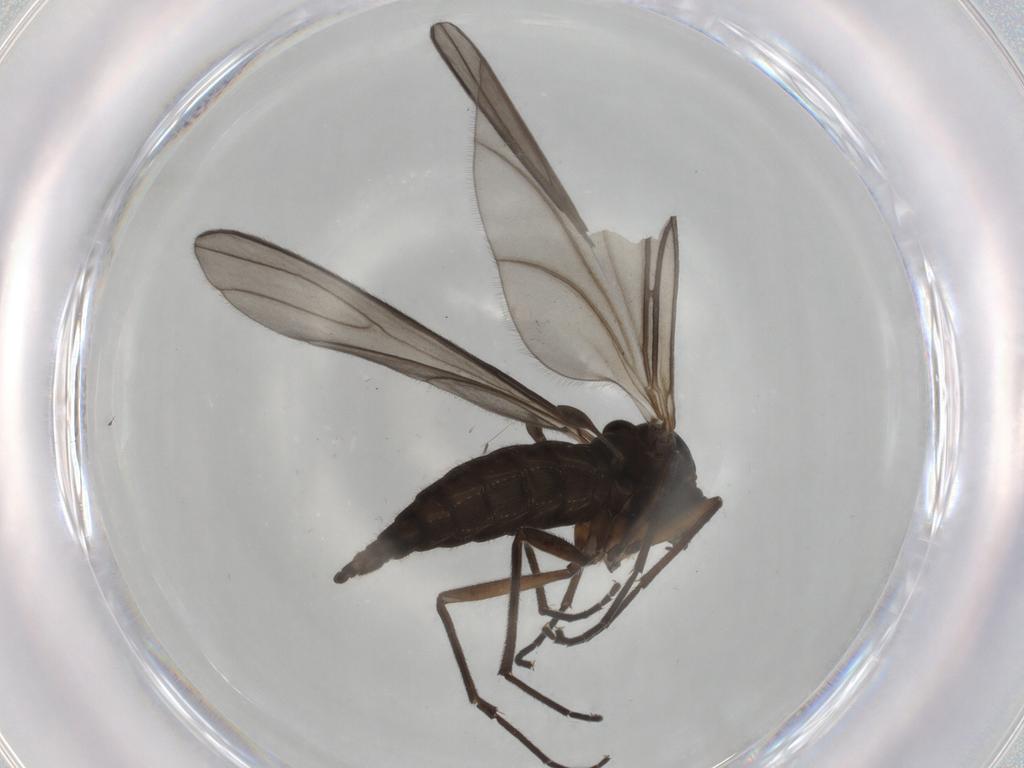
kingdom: Animalia
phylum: Arthropoda
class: Insecta
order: Diptera
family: Sciaridae
